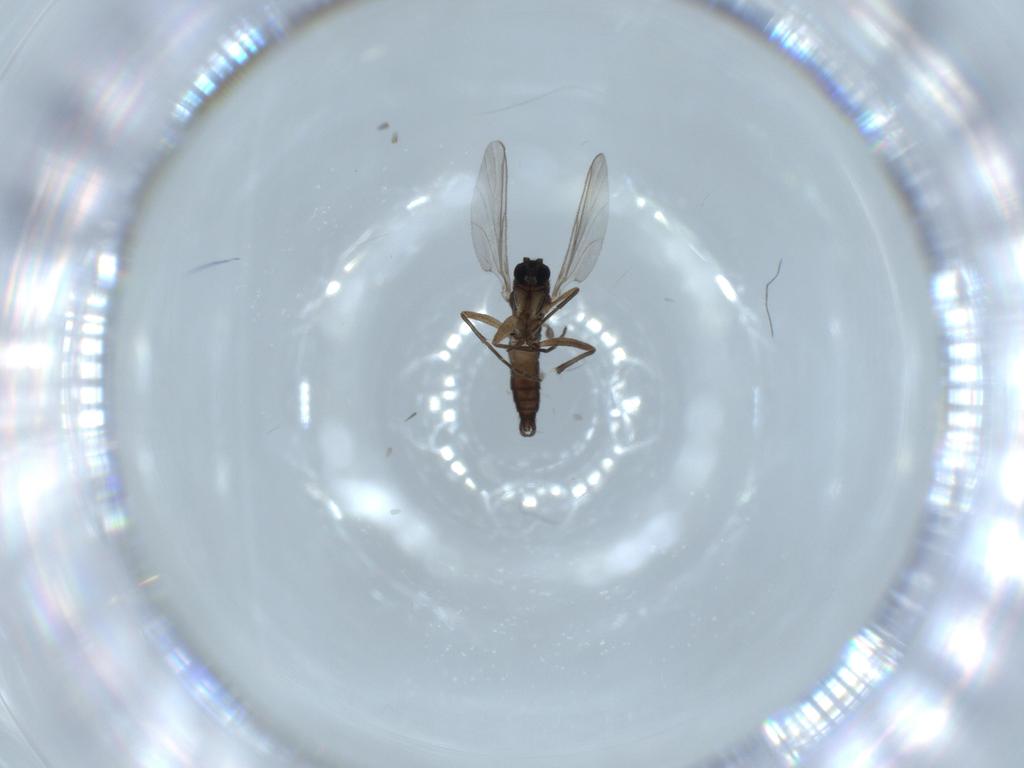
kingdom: Animalia
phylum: Arthropoda
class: Insecta
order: Diptera
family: Sciaridae
